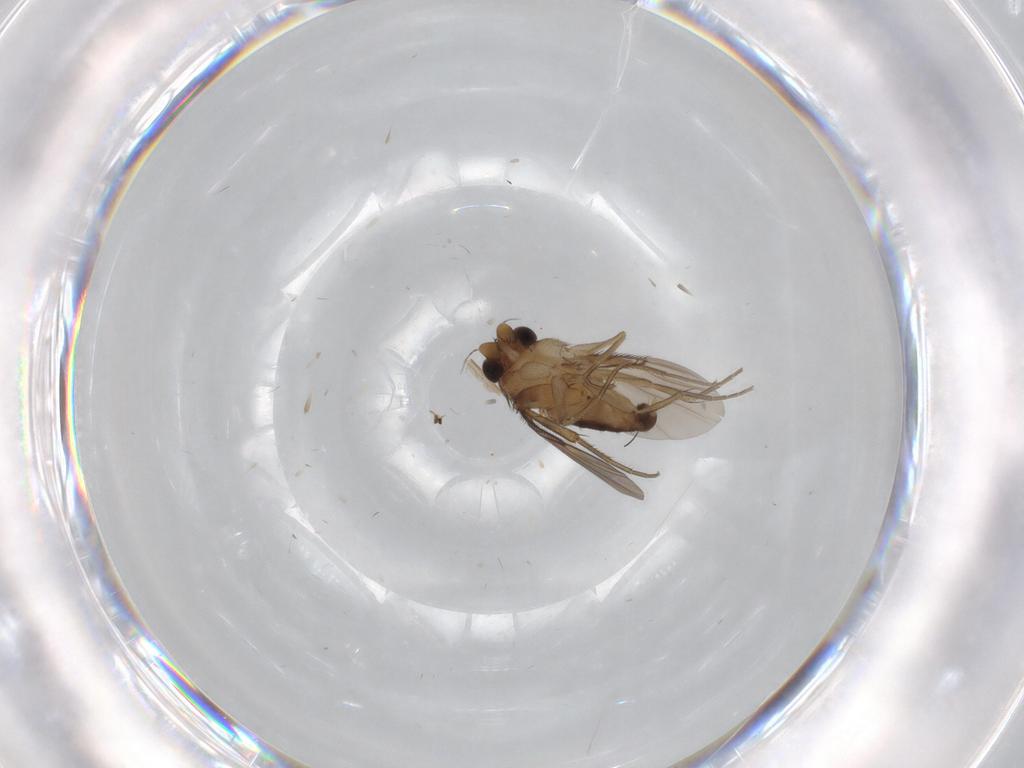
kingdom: Animalia
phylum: Arthropoda
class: Insecta
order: Diptera
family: Phoridae
